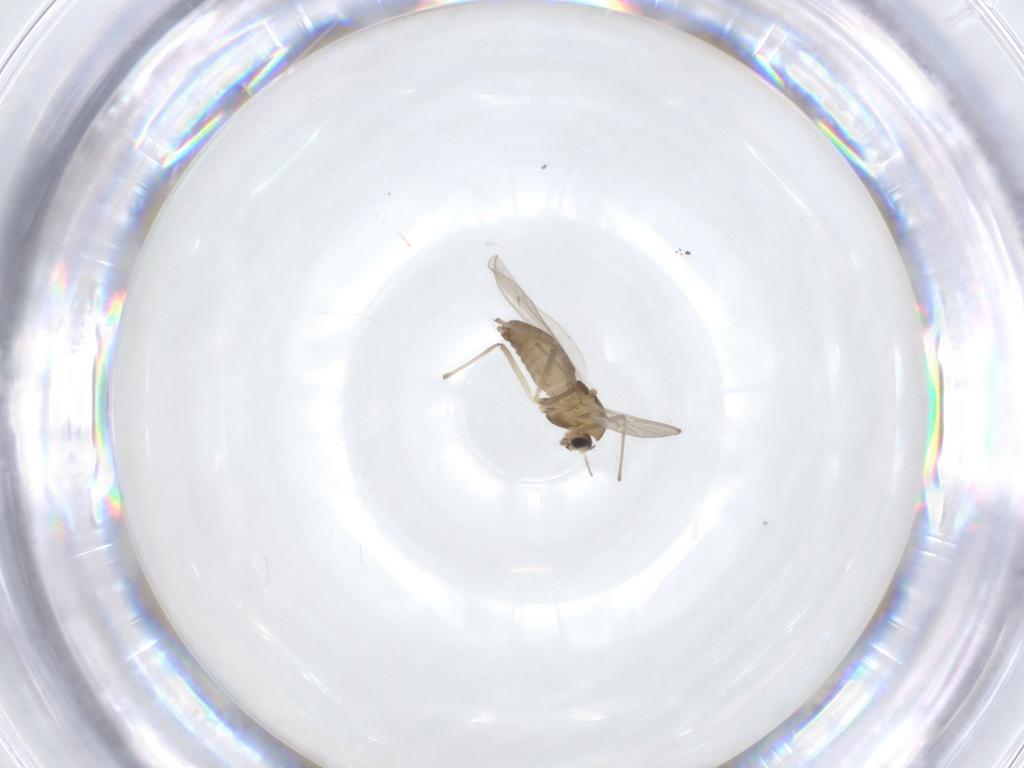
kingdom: Animalia
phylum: Arthropoda
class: Insecta
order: Diptera
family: Chironomidae
